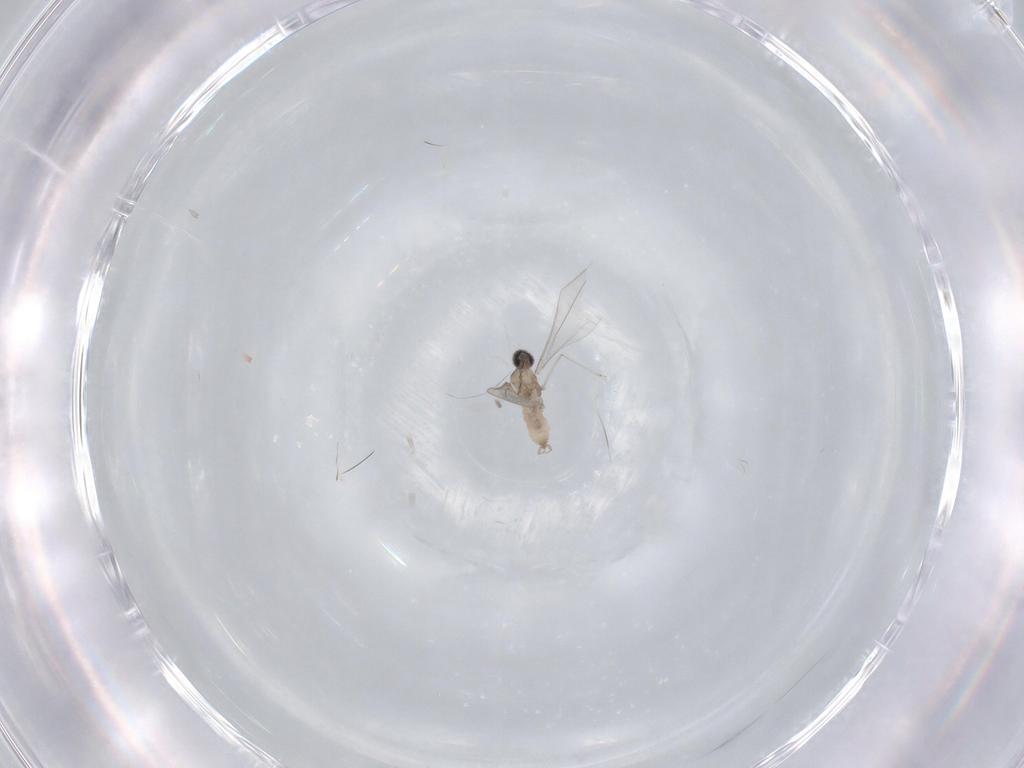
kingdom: Animalia
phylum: Arthropoda
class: Insecta
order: Diptera
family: Cecidomyiidae
